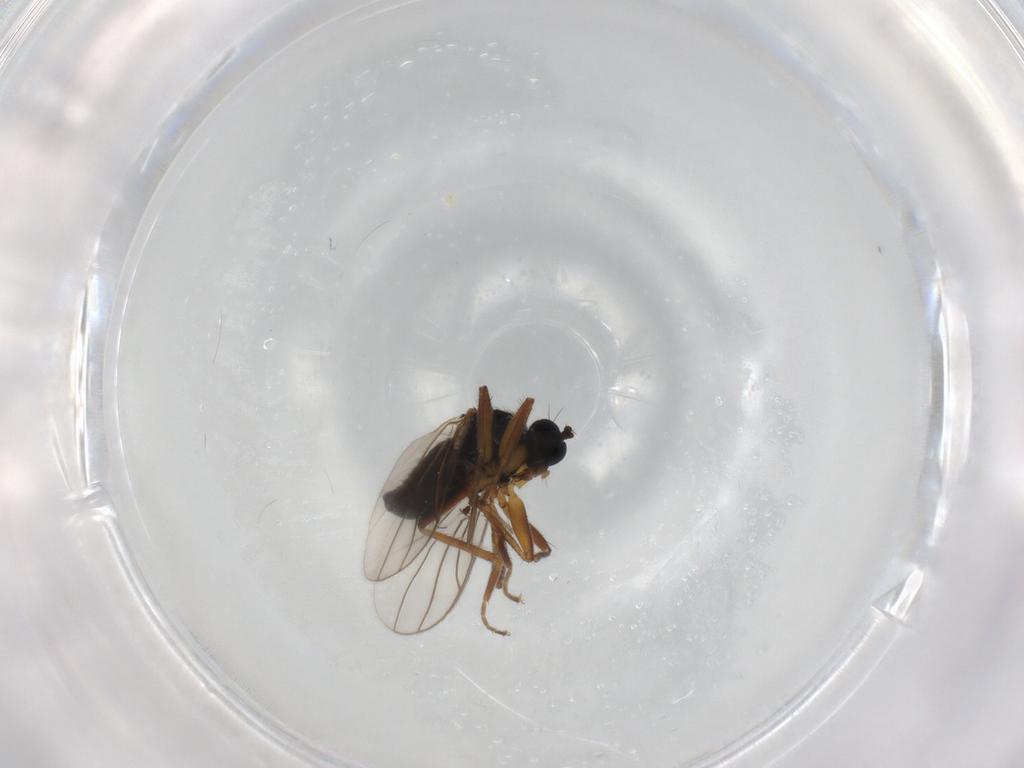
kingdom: Animalia
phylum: Arthropoda
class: Insecta
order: Diptera
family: Hybotidae
